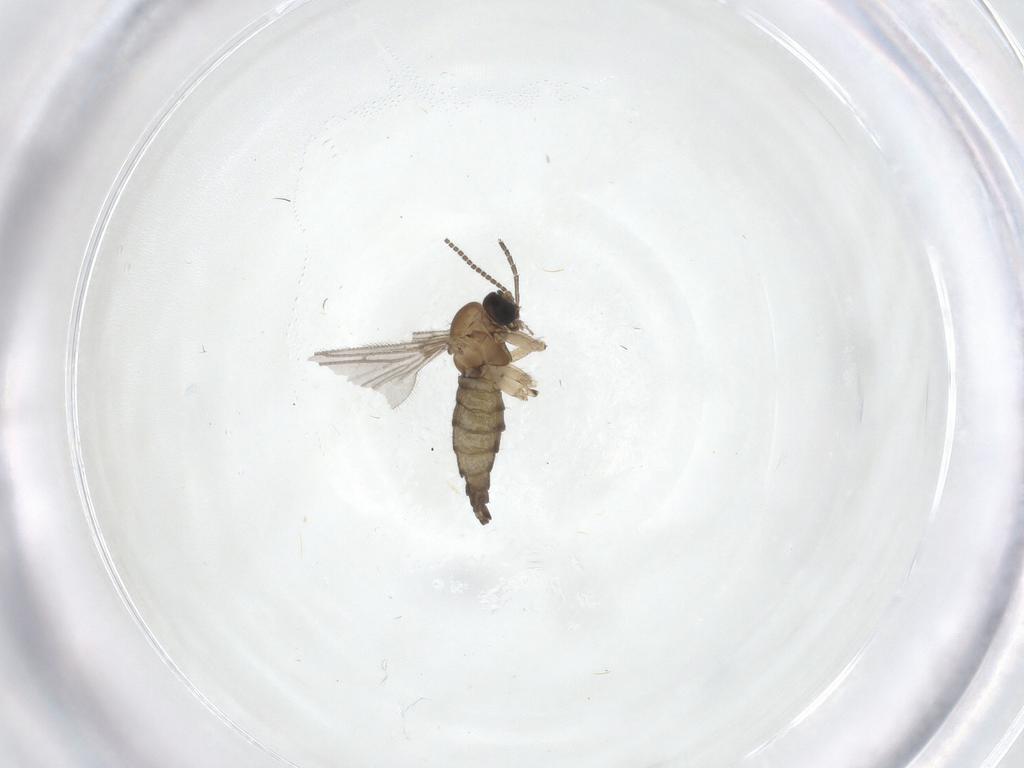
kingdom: Animalia
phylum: Arthropoda
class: Insecta
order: Diptera
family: Sciaridae
